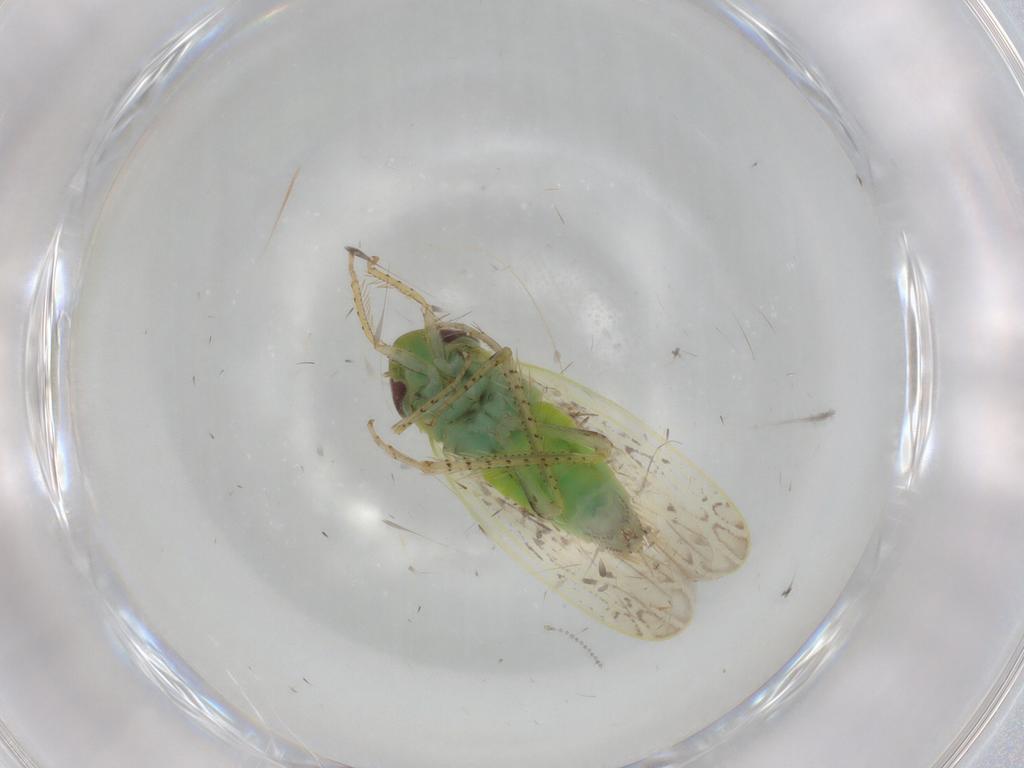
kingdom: Animalia
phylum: Arthropoda
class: Insecta
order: Hemiptera
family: Cicadellidae
